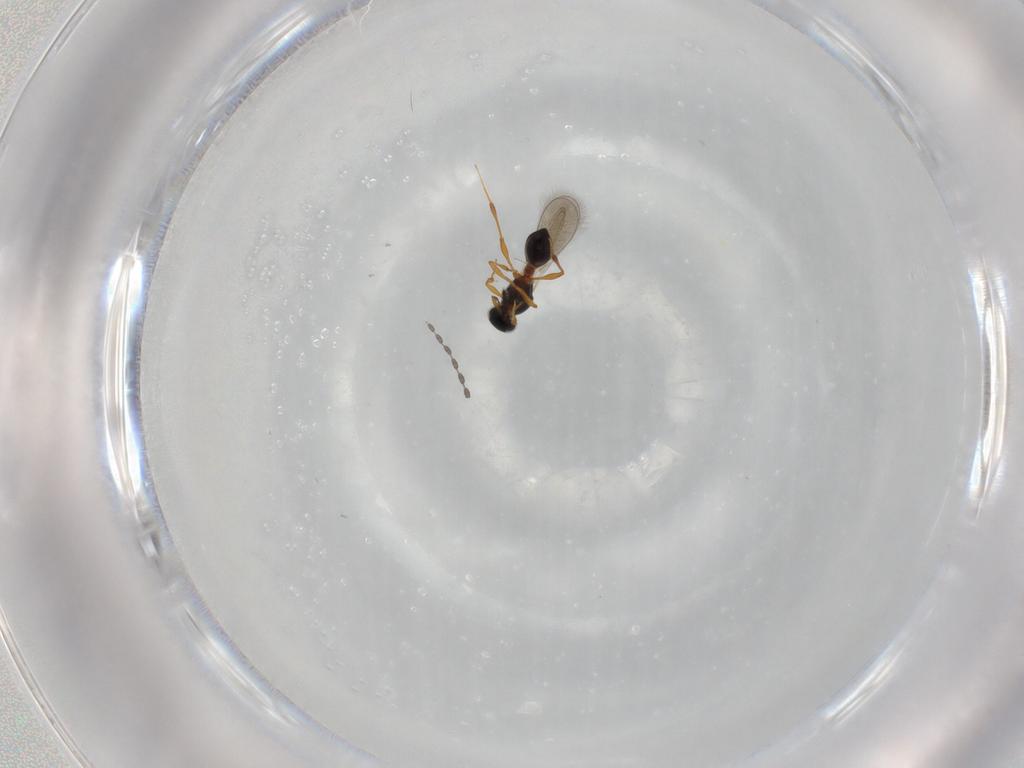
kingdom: Animalia
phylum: Arthropoda
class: Insecta
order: Hymenoptera
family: Platygastridae
